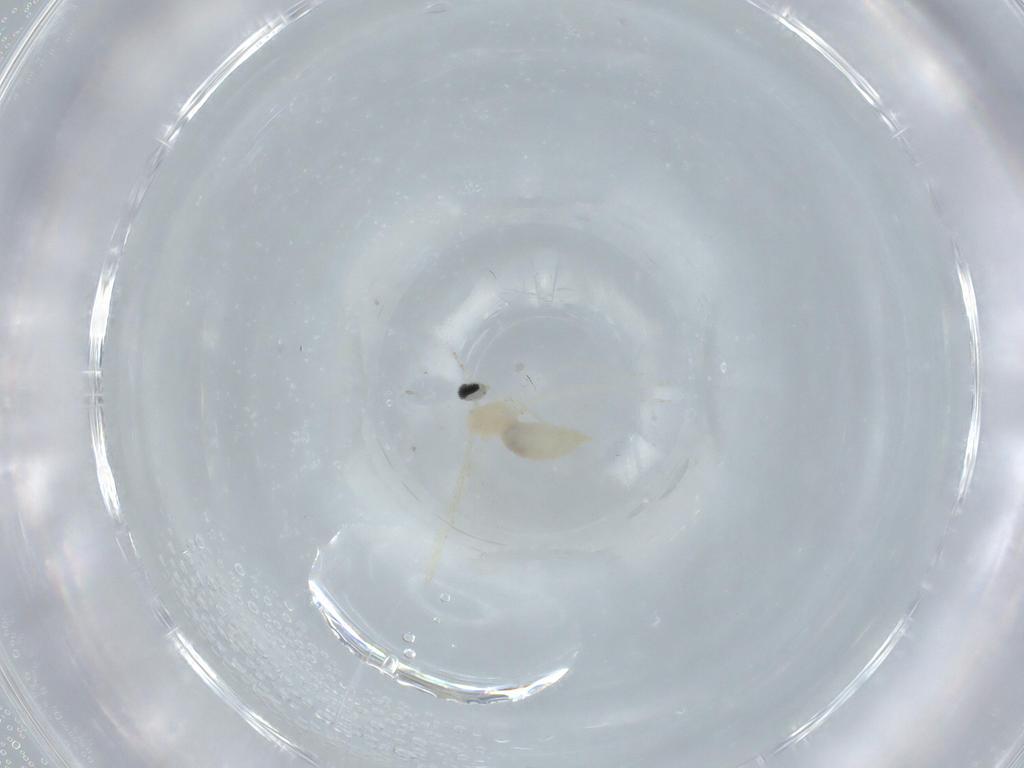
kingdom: Animalia
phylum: Arthropoda
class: Insecta
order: Diptera
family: Cecidomyiidae
